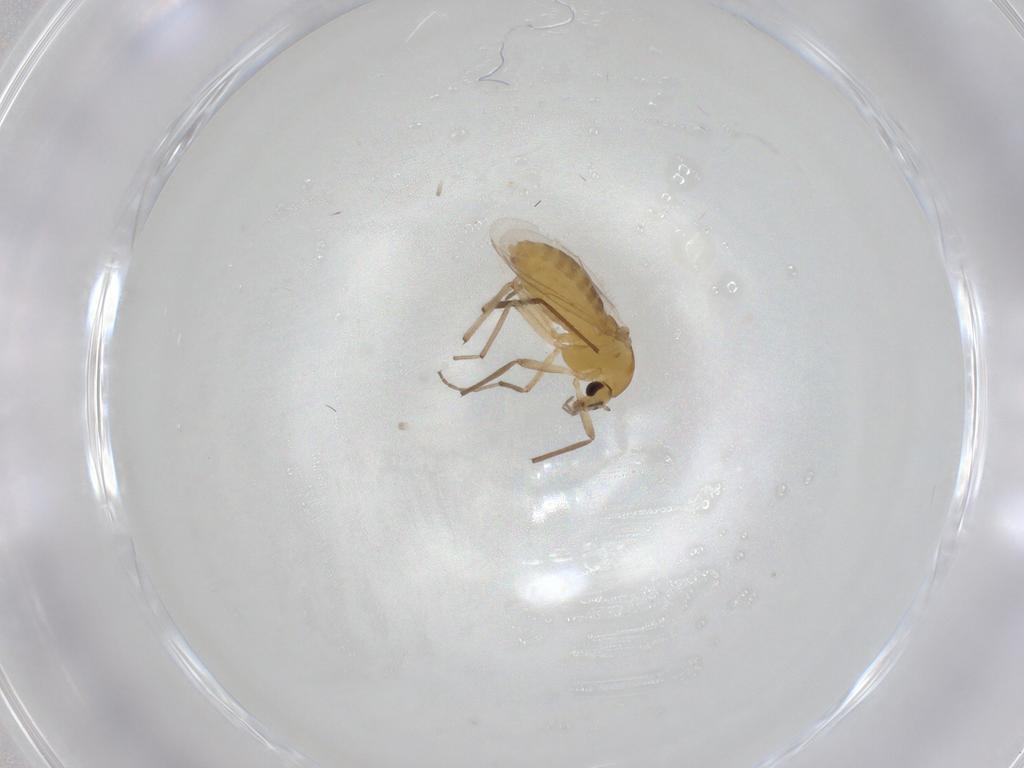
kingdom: Animalia
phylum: Arthropoda
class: Insecta
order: Diptera
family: Chironomidae
